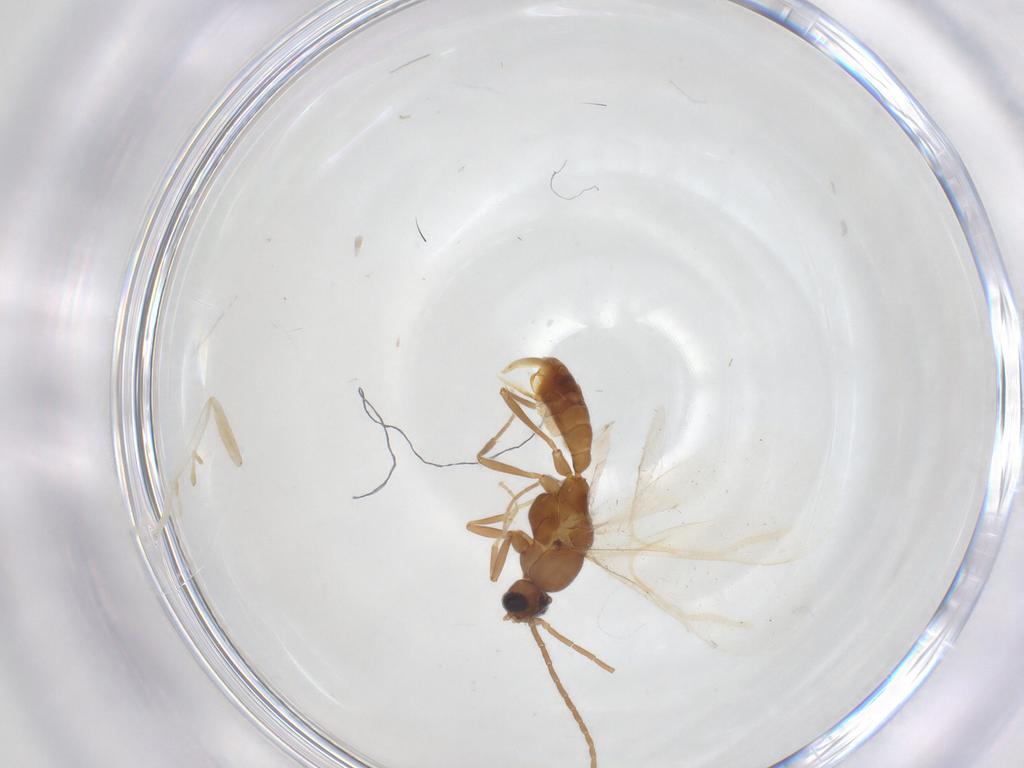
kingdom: Animalia
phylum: Arthropoda
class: Insecta
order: Hymenoptera
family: Formicidae
